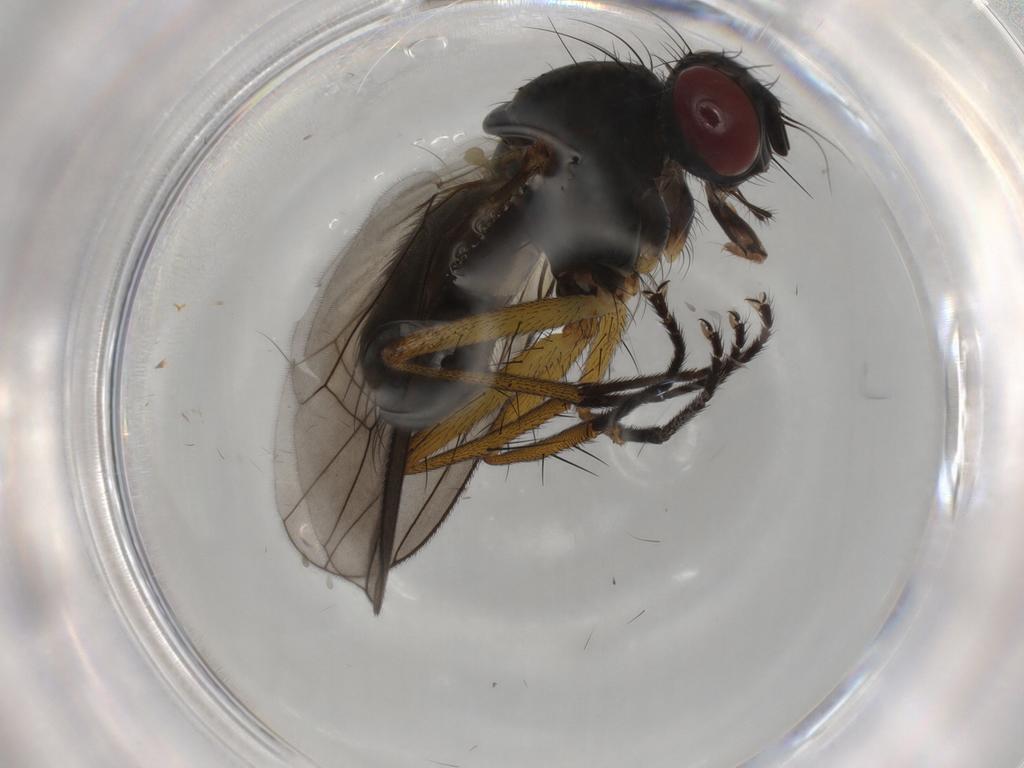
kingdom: Animalia
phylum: Arthropoda
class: Insecta
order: Diptera
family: Muscidae
